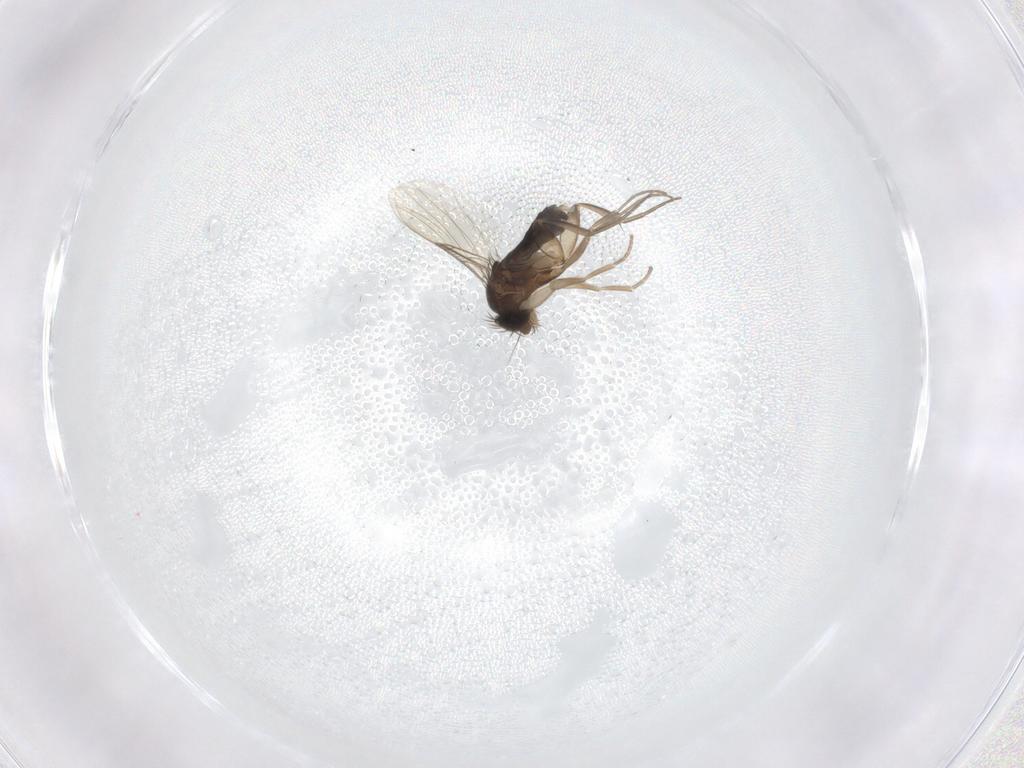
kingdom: Animalia
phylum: Arthropoda
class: Insecta
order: Diptera
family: Phoridae
